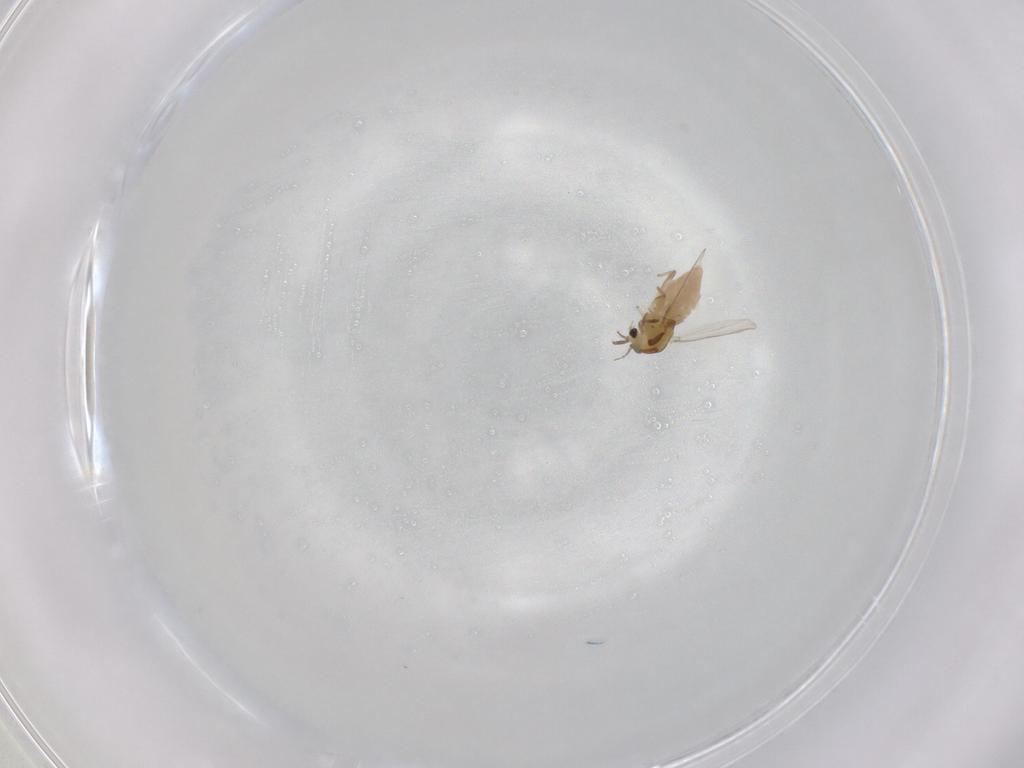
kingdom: Animalia
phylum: Arthropoda
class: Insecta
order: Diptera
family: Chironomidae
